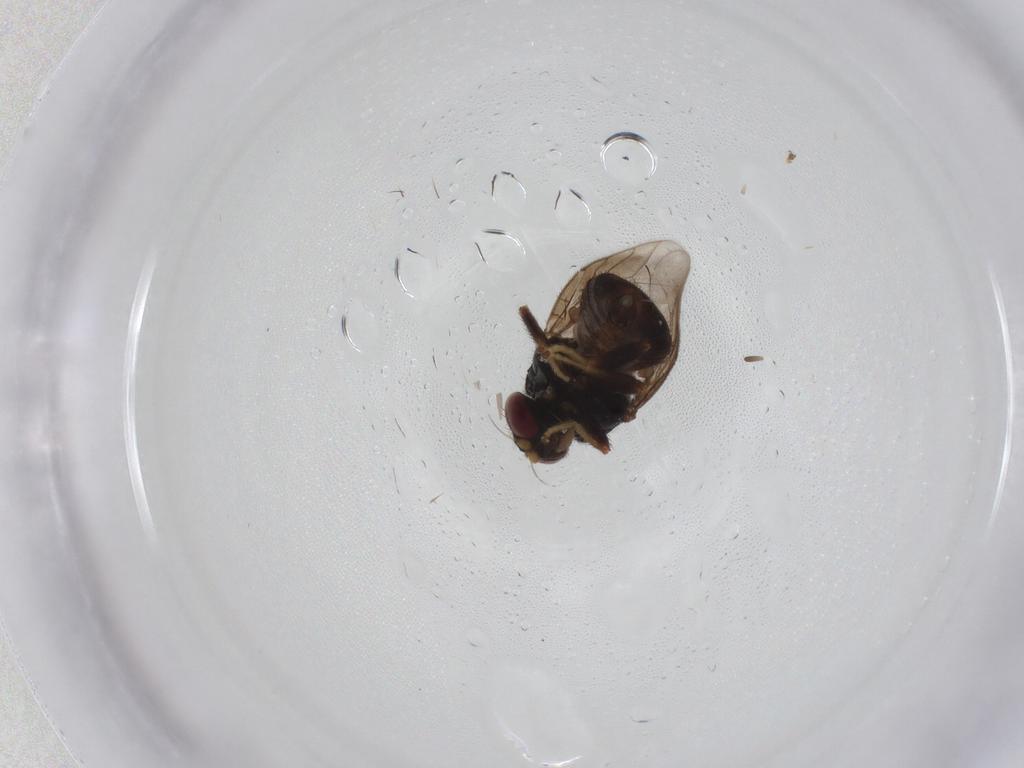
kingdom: Animalia
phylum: Arthropoda
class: Insecta
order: Diptera
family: Chloropidae
